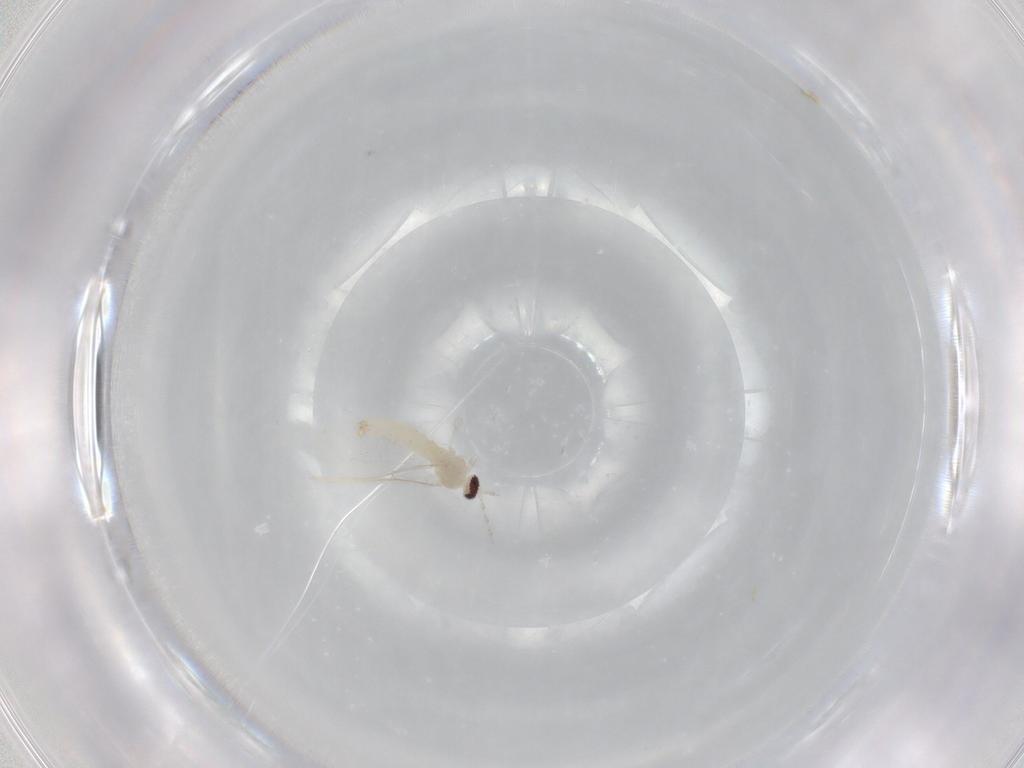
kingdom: Animalia
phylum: Arthropoda
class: Insecta
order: Diptera
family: Cecidomyiidae
